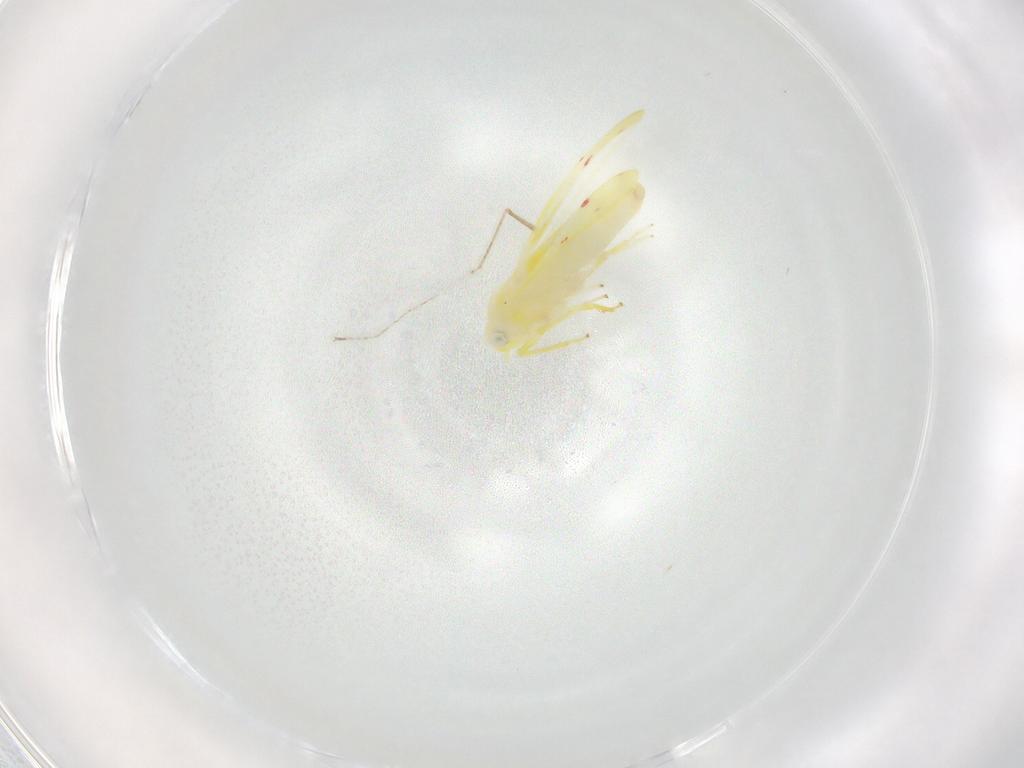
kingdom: Animalia
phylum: Arthropoda
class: Insecta
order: Hemiptera
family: Cicadellidae
